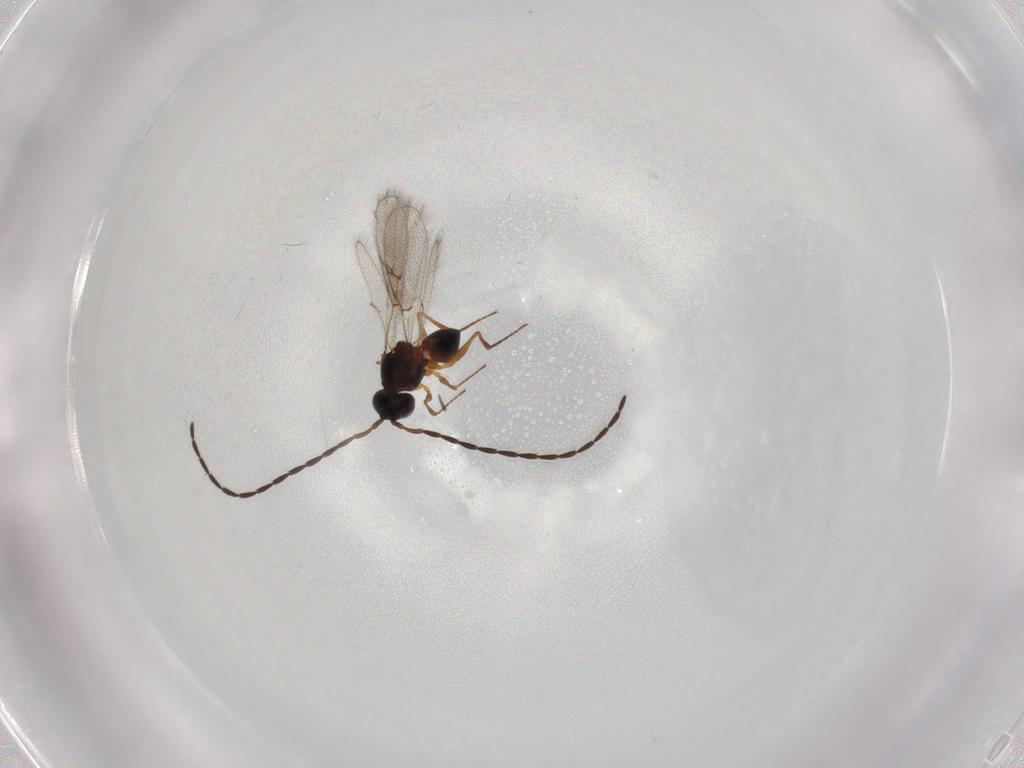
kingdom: Animalia
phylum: Arthropoda
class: Insecta
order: Hymenoptera
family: Figitidae
